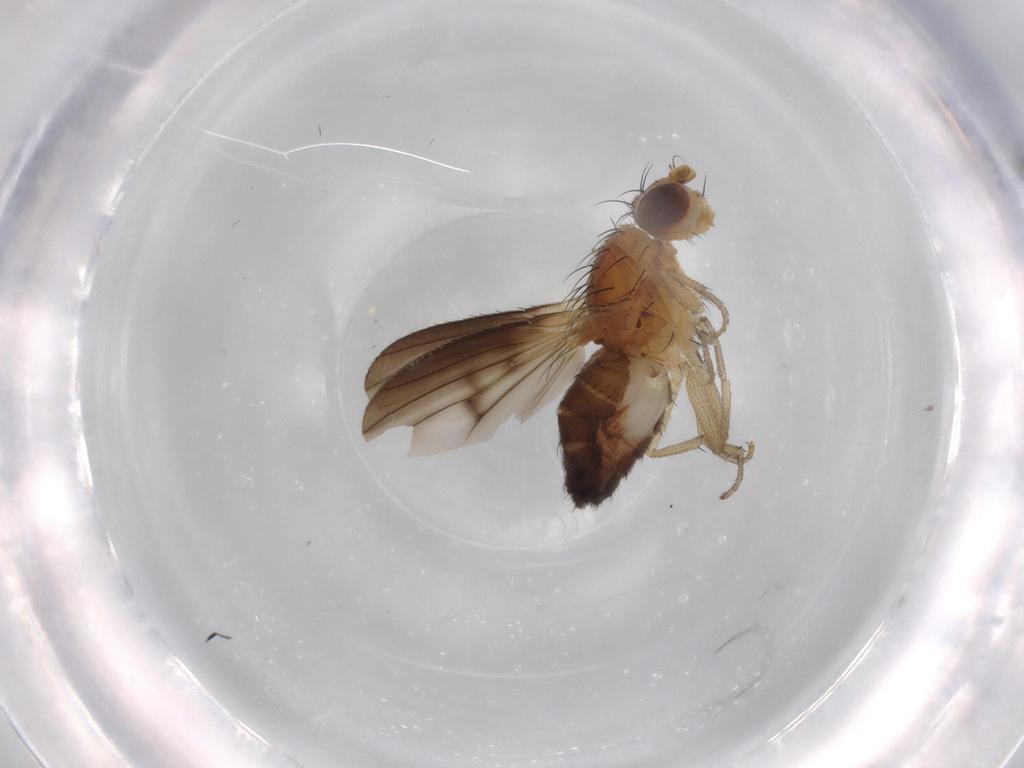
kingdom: Animalia
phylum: Arthropoda
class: Insecta
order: Diptera
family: Heleomyzidae
